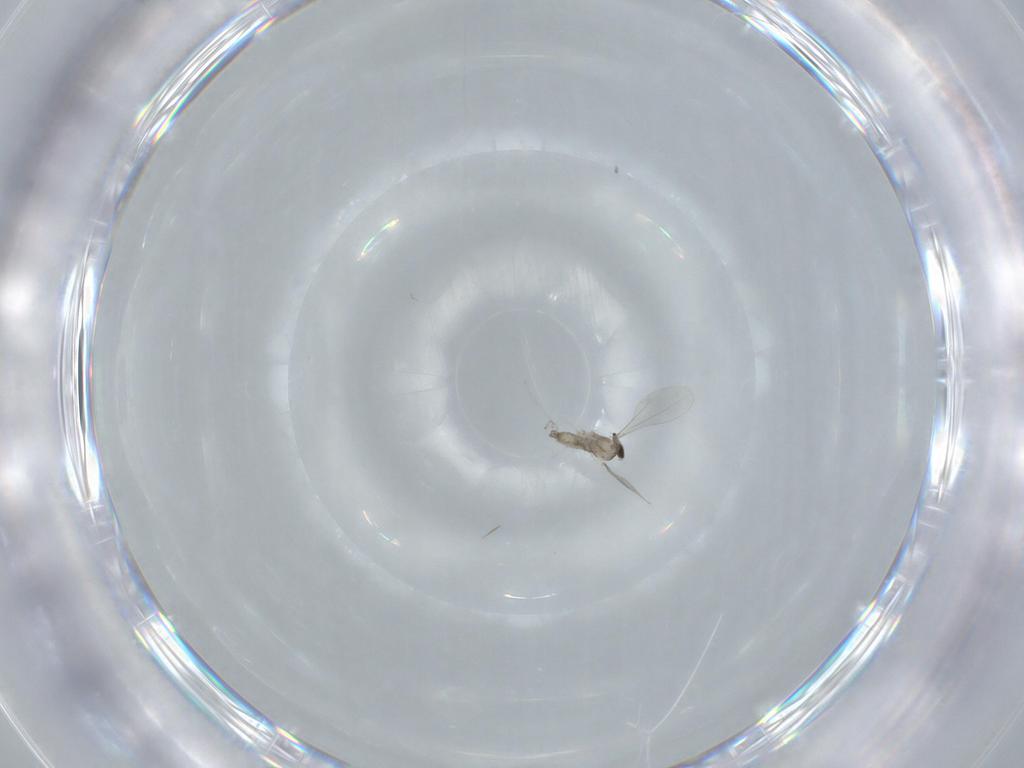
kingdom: Animalia
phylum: Arthropoda
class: Insecta
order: Diptera
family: Cecidomyiidae
